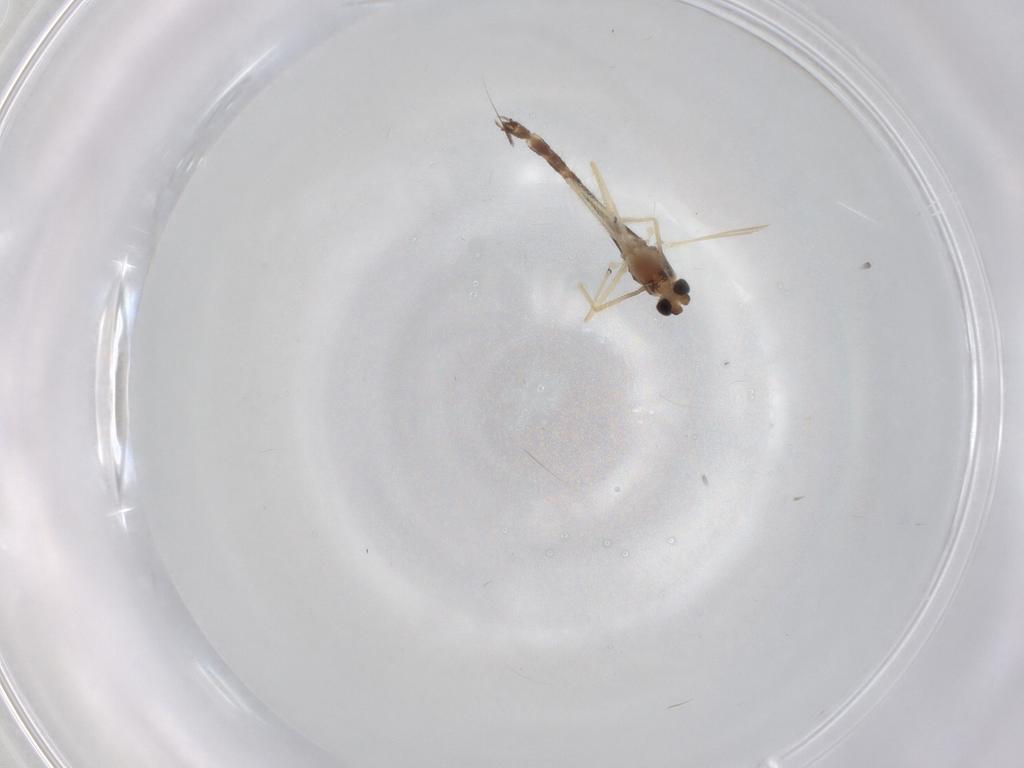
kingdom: Animalia
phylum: Arthropoda
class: Insecta
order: Diptera
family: Chironomidae
